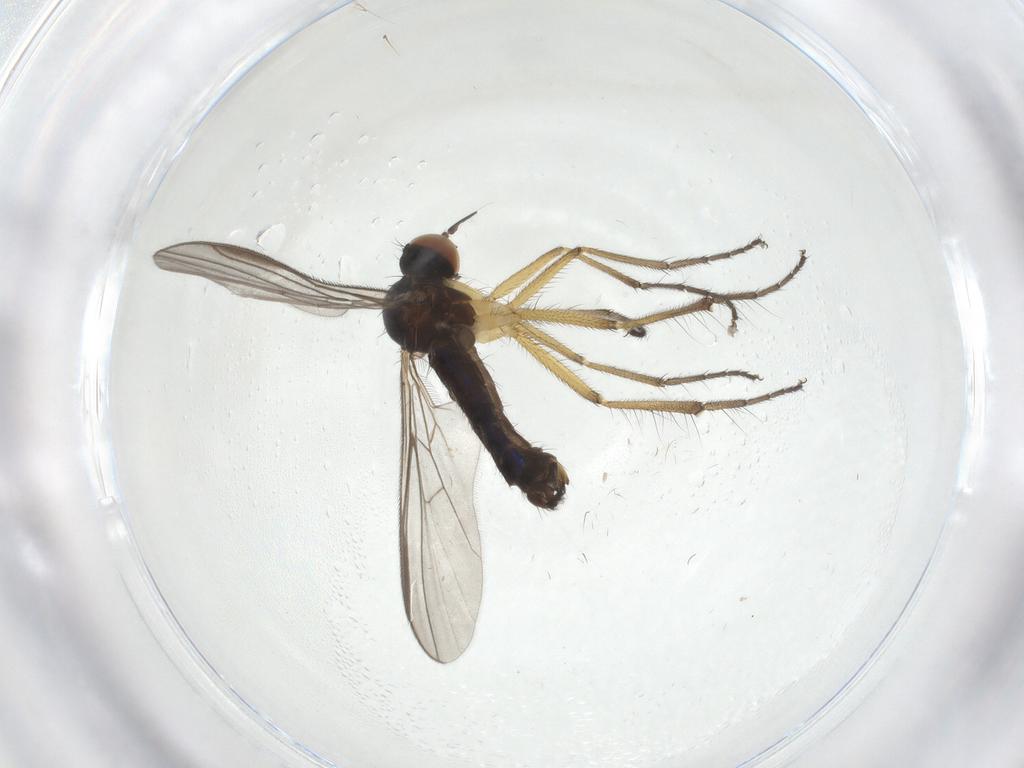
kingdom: Animalia
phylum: Arthropoda
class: Insecta
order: Diptera
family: Empididae
